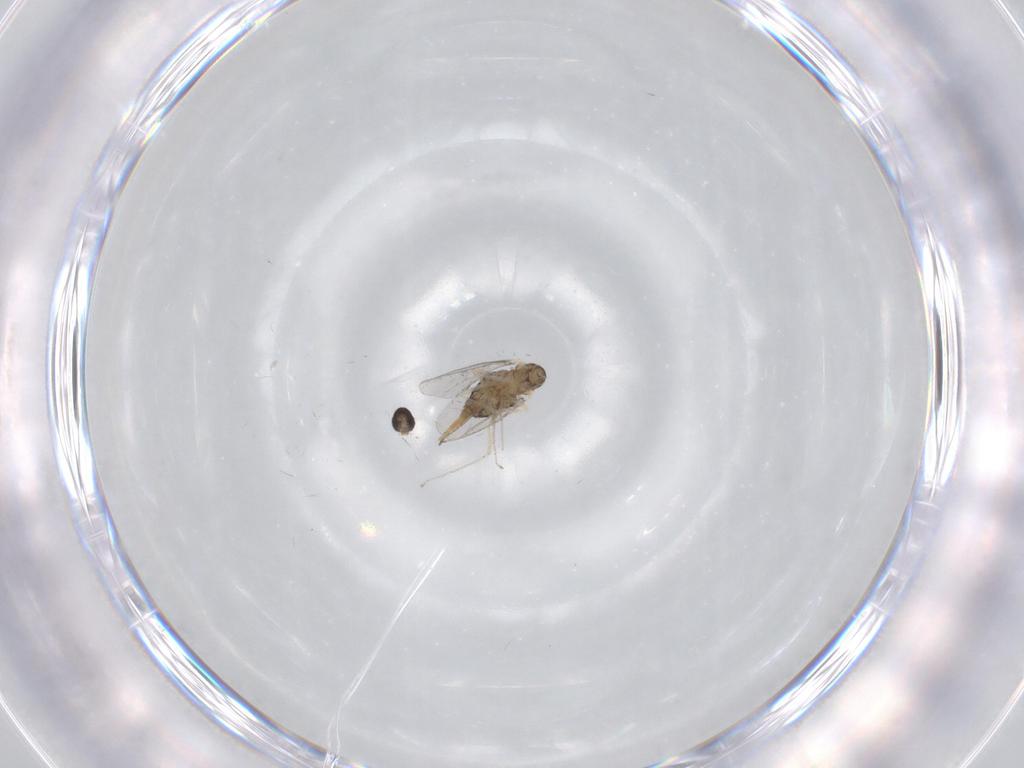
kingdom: Animalia
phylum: Arthropoda
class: Insecta
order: Diptera
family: Cecidomyiidae
